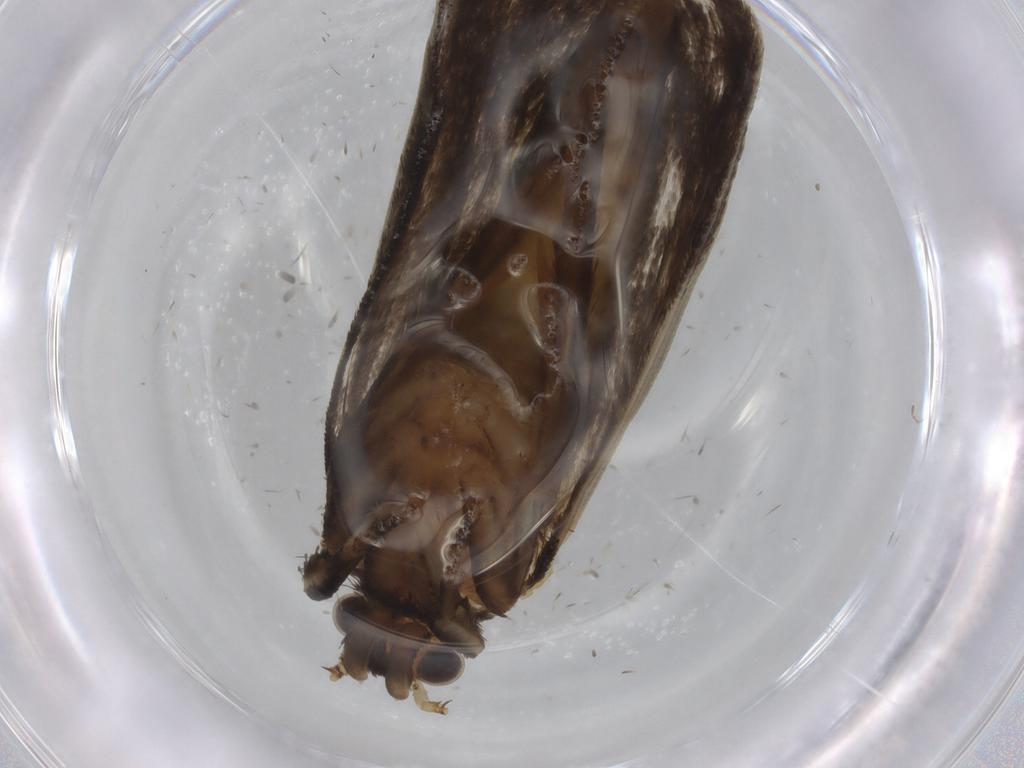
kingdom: Animalia
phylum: Arthropoda
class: Insecta
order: Lepidoptera
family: Tineidae
